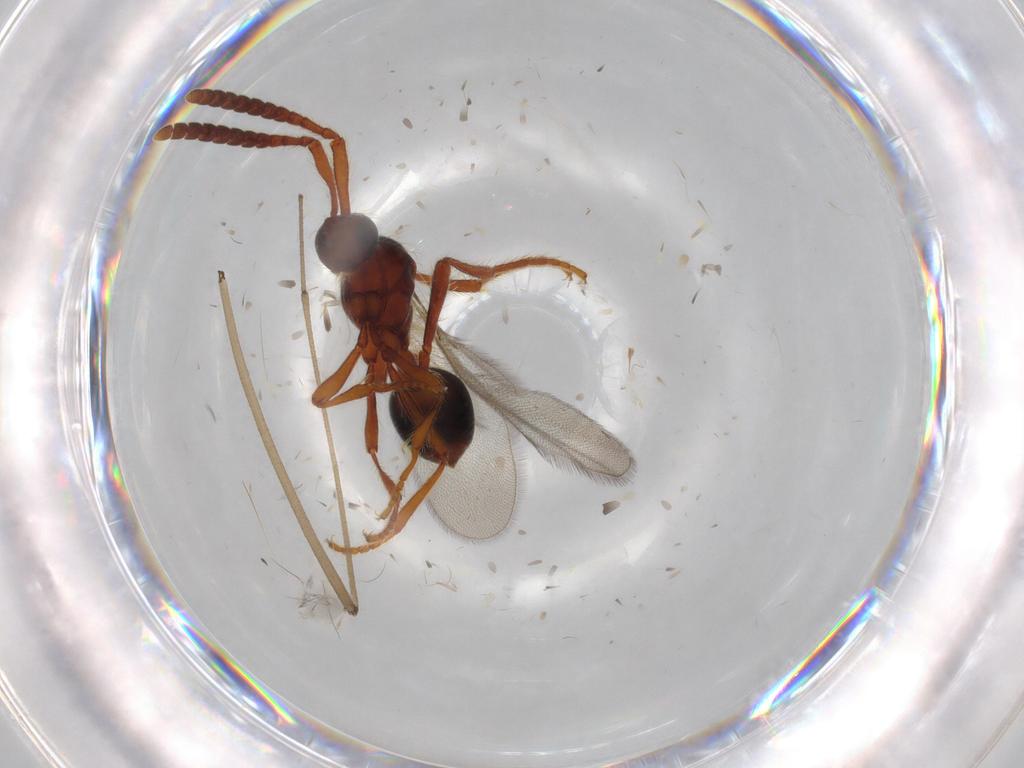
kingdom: Animalia
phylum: Arthropoda
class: Insecta
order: Hymenoptera
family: Diapriidae
